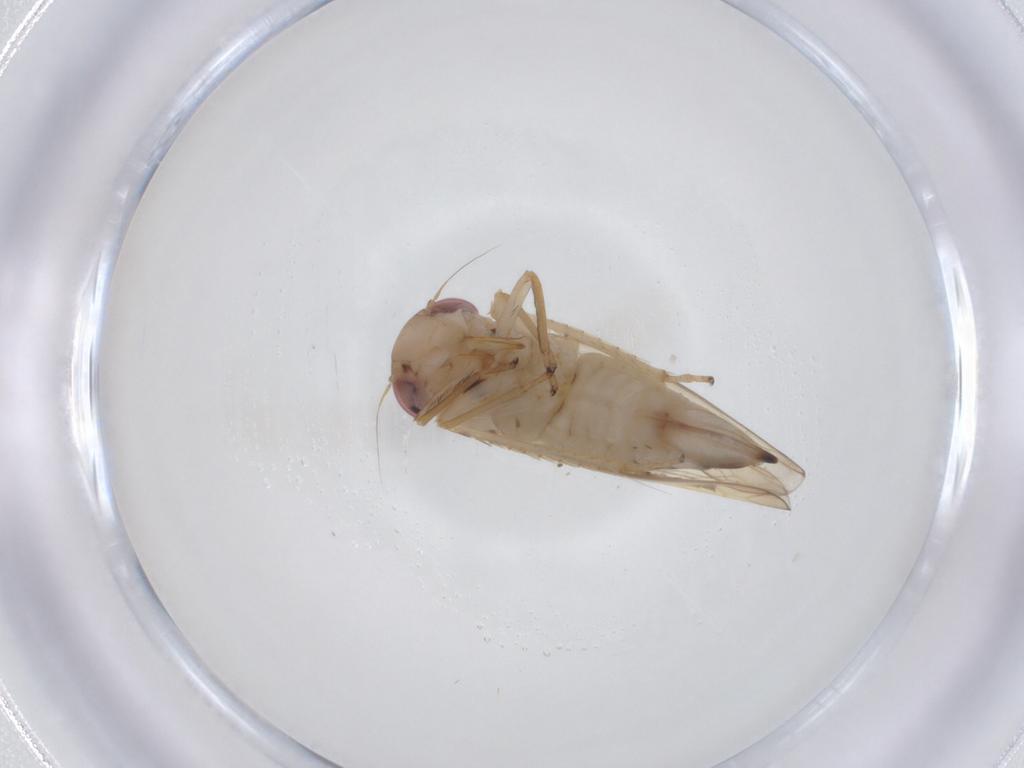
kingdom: Animalia
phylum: Arthropoda
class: Insecta
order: Hemiptera
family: Cicadellidae
